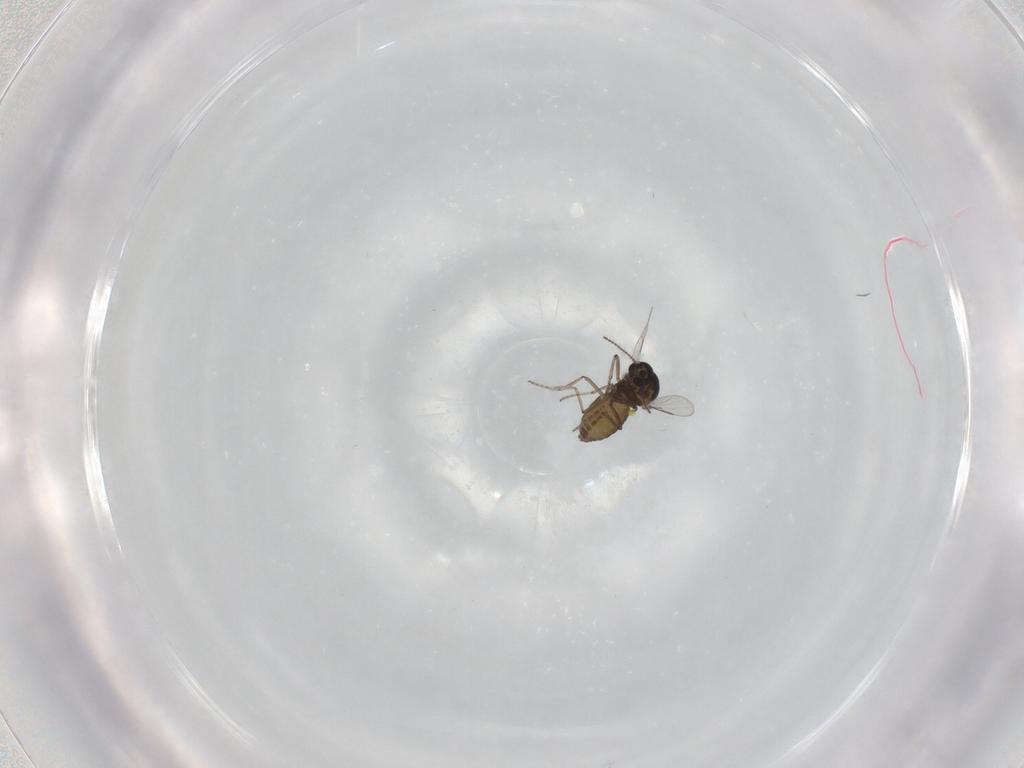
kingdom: Animalia
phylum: Arthropoda
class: Insecta
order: Diptera
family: Ceratopogonidae
